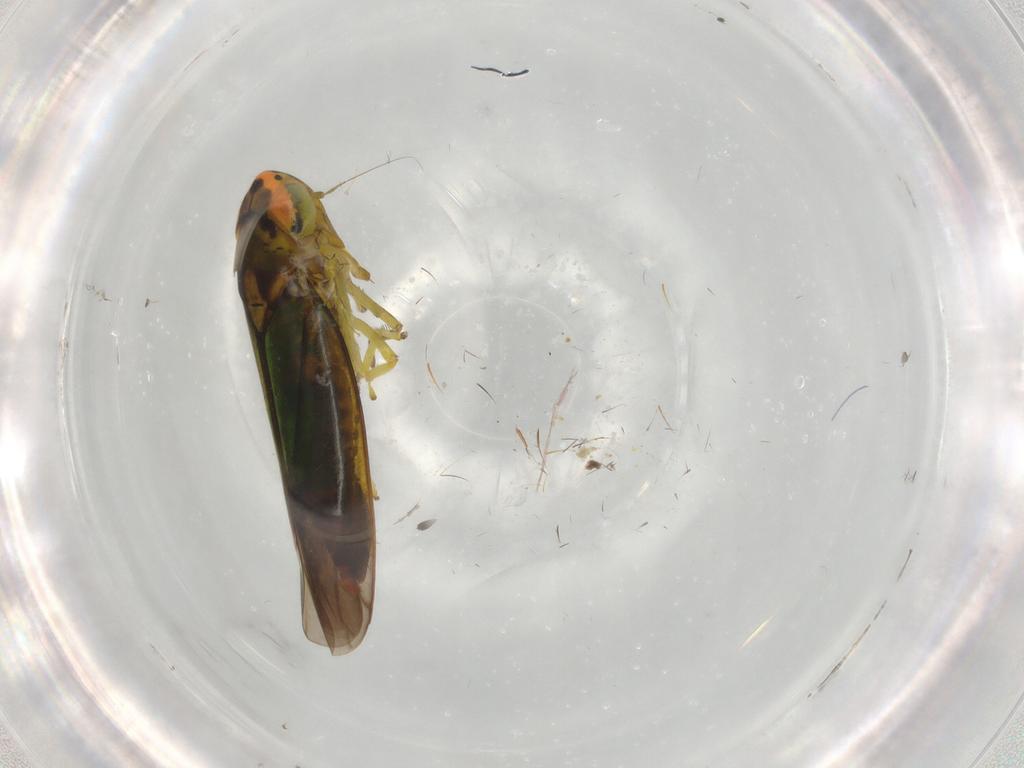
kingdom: Animalia
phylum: Arthropoda
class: Insecta
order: Hemiptera
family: Cicadellidae
